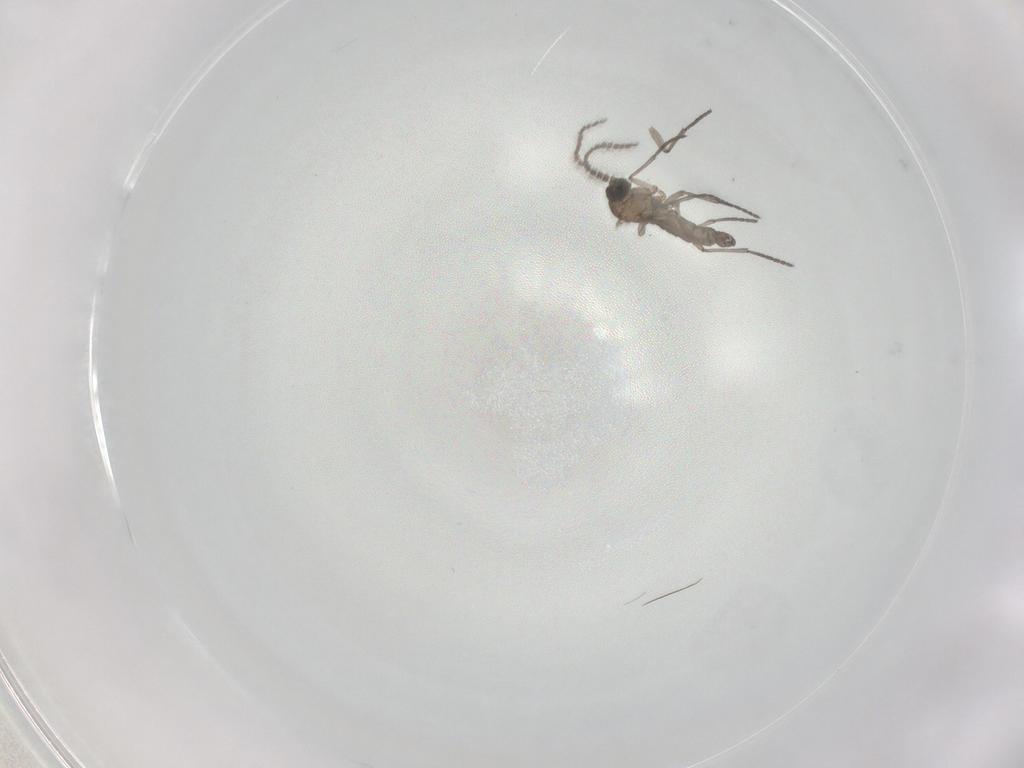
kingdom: Animalia
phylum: Arthropoda
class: Insecta
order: Diptera
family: Sciaridae
